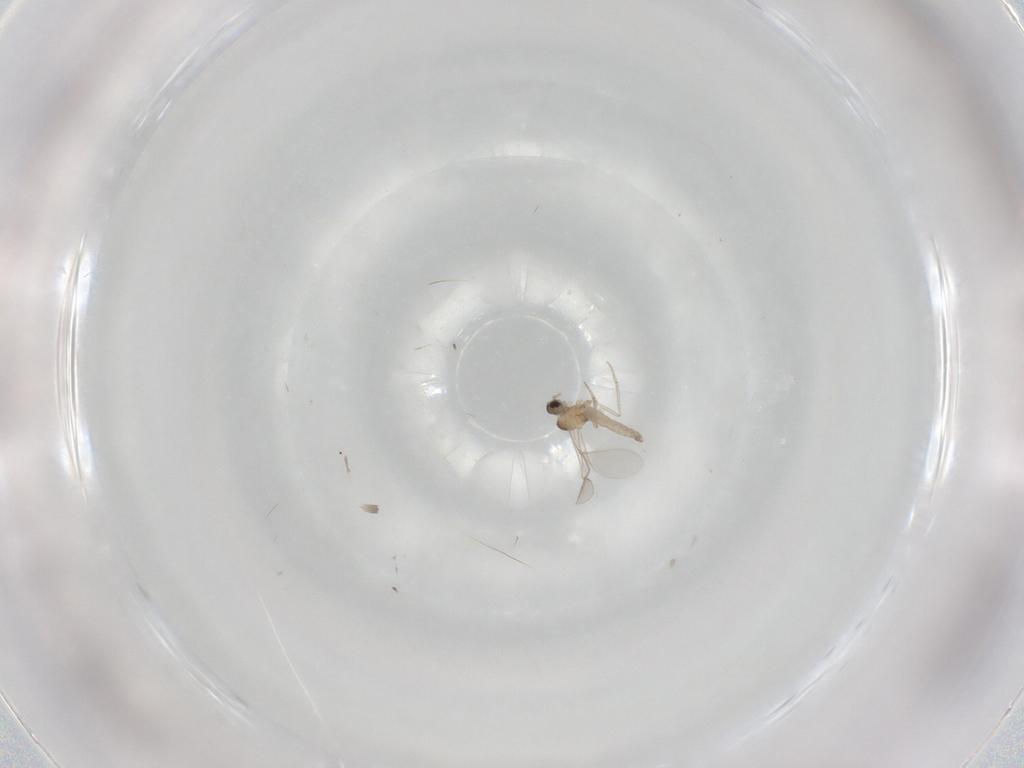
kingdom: Animalia
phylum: Arthropoda
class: Insecta
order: Diptera
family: Cecidomyiidae
